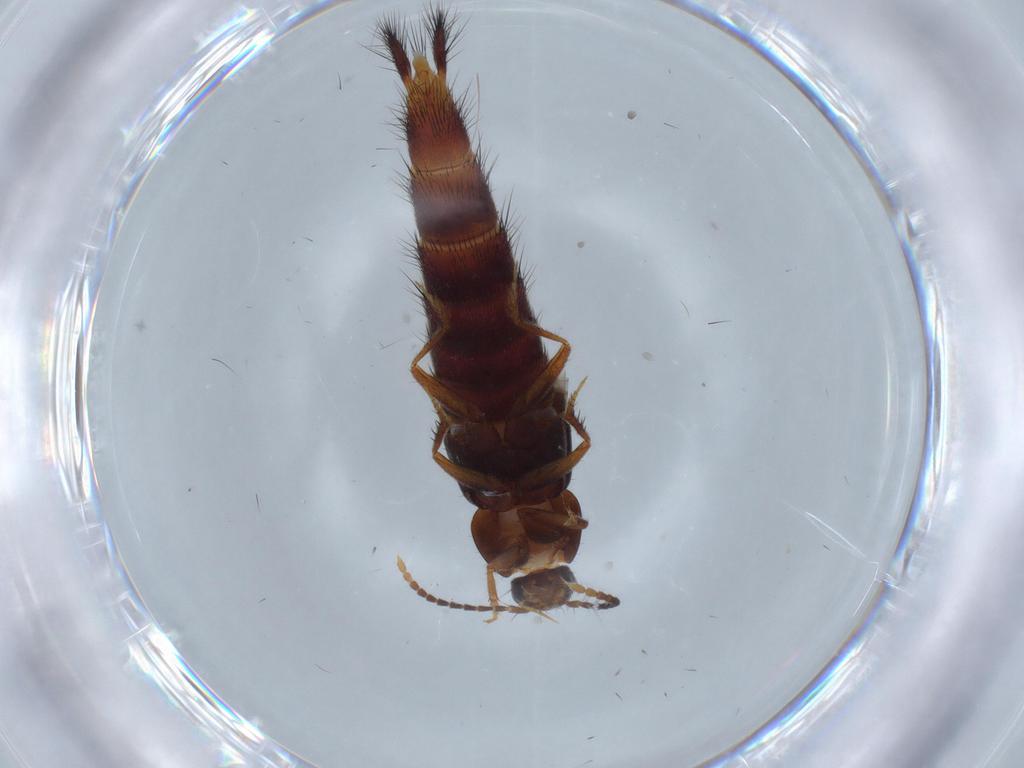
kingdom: Animalia
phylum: Arthropoda
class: Insecta
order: Coleoptera
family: Staphylinidae
